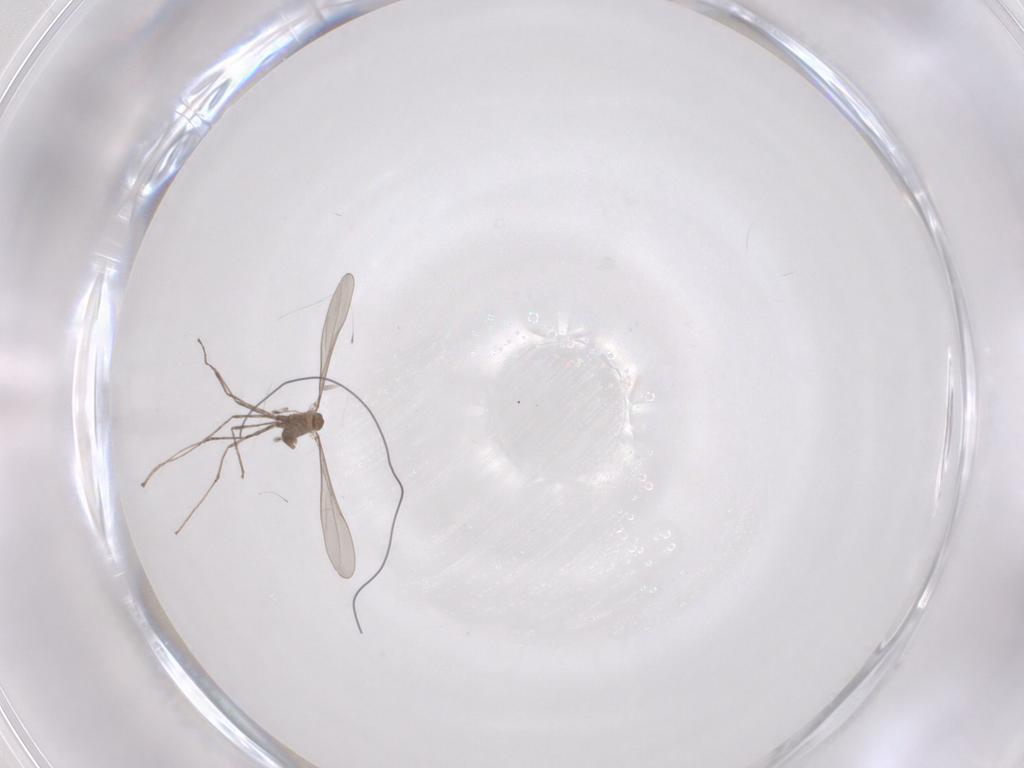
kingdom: Animalia
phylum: Arthropoda
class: Insecta
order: Diptera
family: Cecidomyiidae
